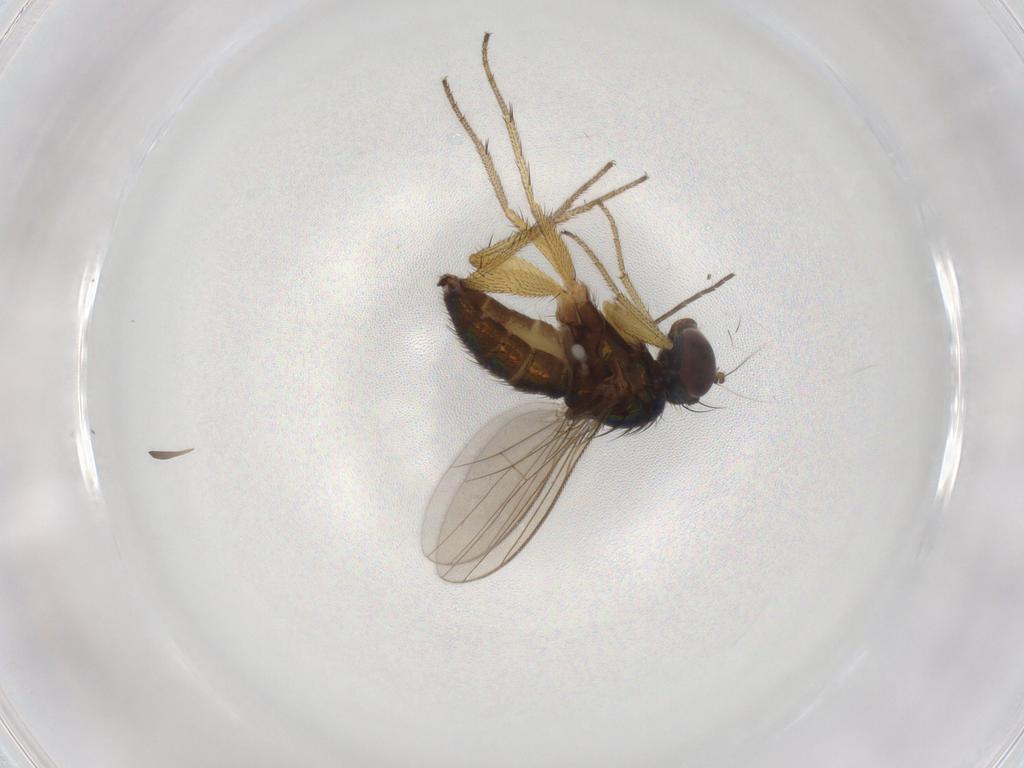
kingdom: Animalia
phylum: Arthropoda
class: Insecta
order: Diptera
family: Dolichopodidae
